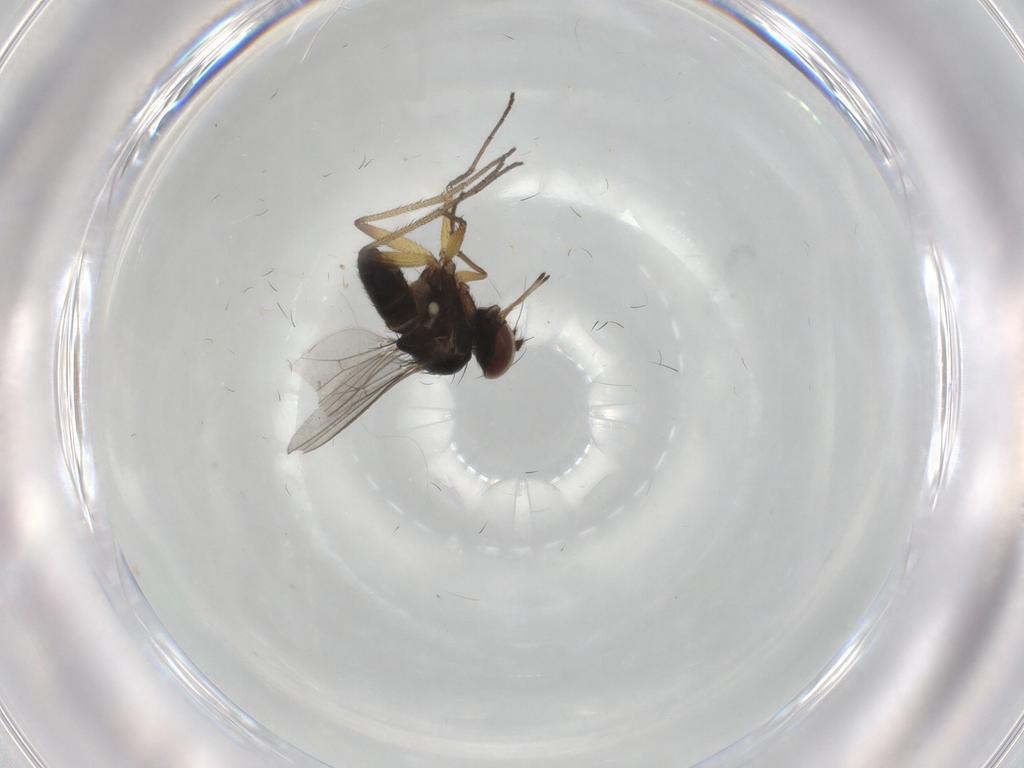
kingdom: Animalia
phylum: Arthropoda
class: Insecta
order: Diptera
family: Dolichopodidae
